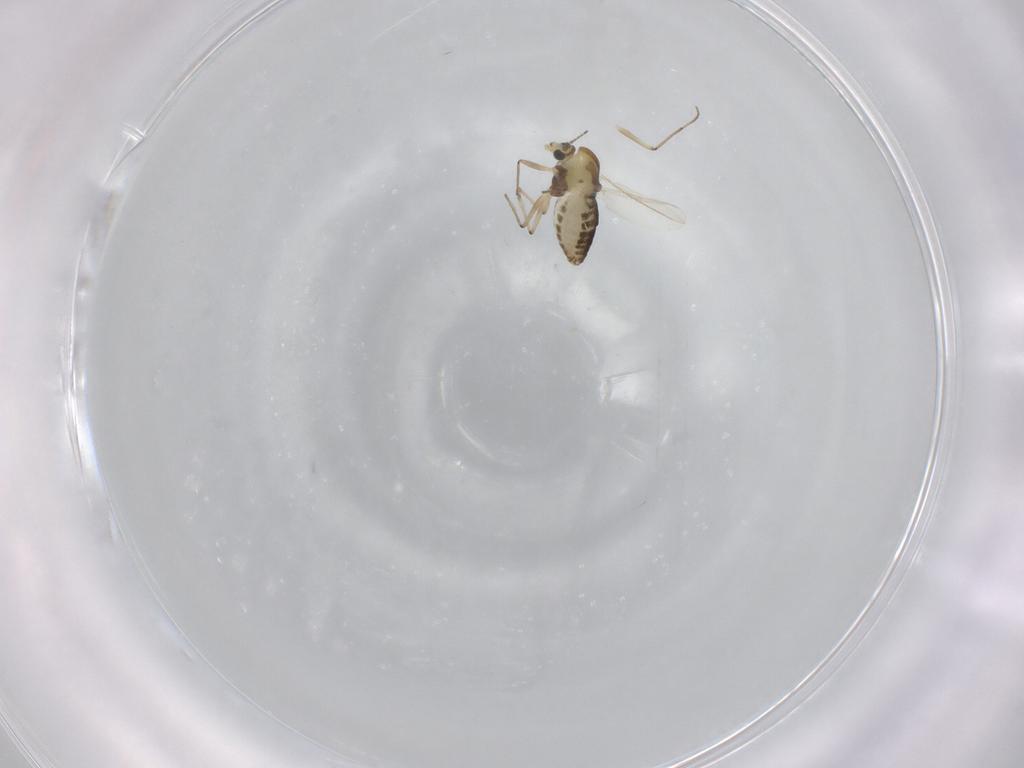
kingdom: Animalia
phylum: Arthropoda
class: Insecta
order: Diptera
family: Chironomidae
